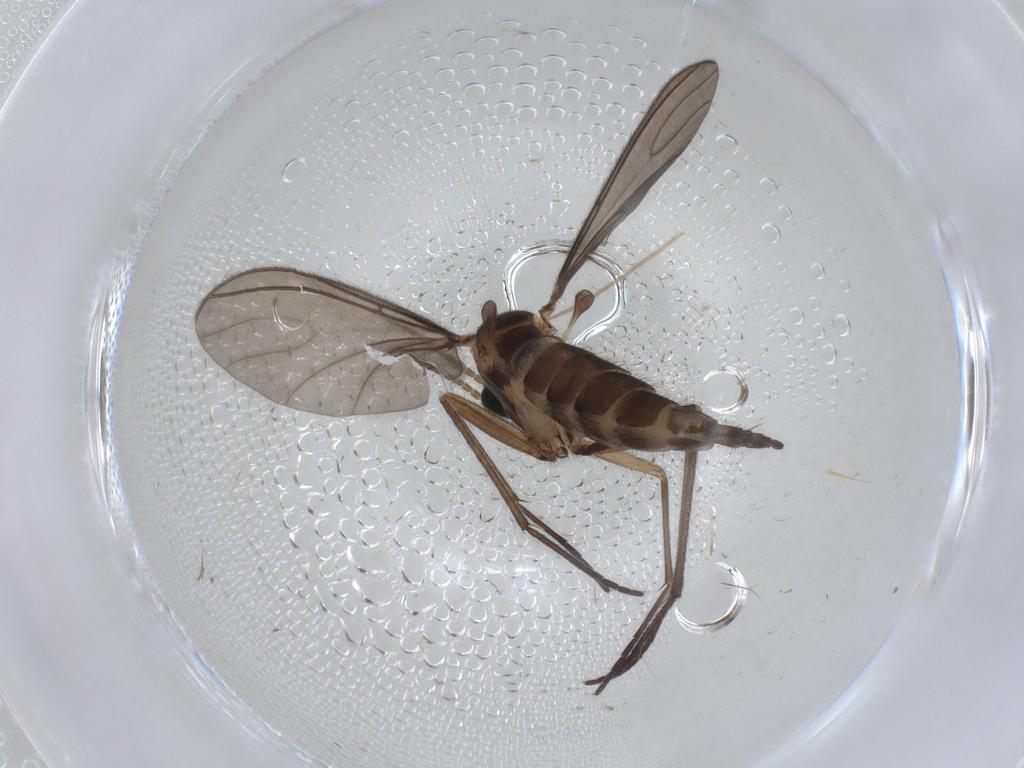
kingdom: Animalia
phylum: Arthropoda
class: Insecta
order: Diptera
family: Sciaridae
